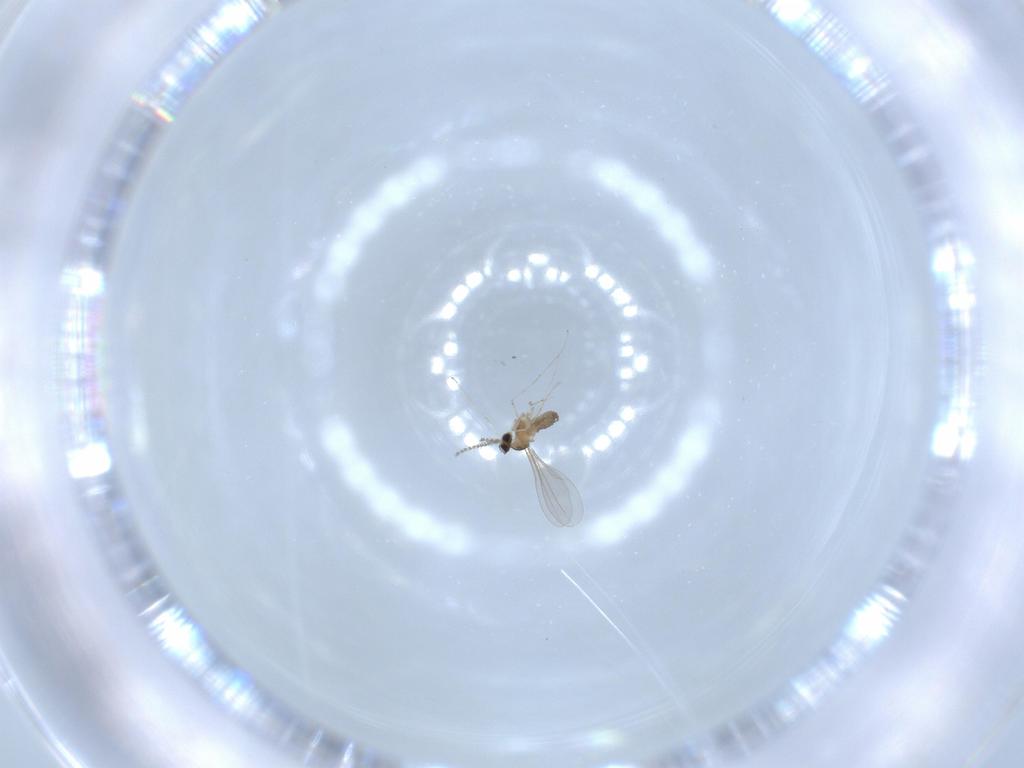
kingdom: Animalia
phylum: Arthropoda
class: Insecta
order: Diptera
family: Cecidomyiidae
